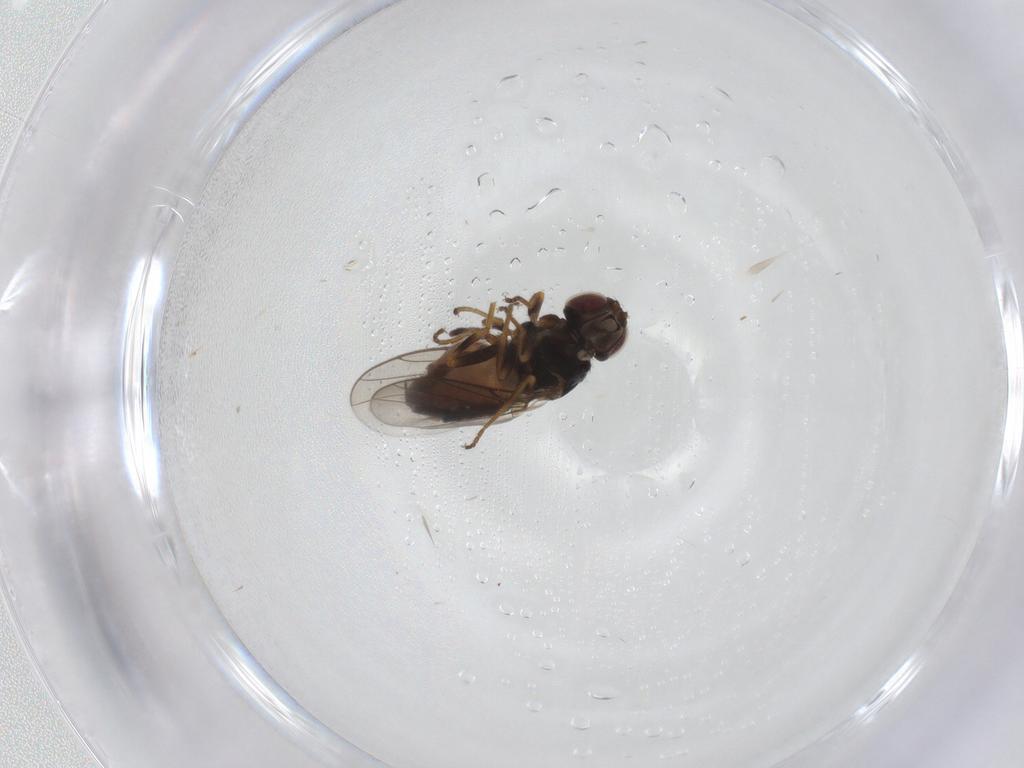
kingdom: Animalia
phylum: Arthropoda
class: Insecta
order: Diptera
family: Chloropidae
